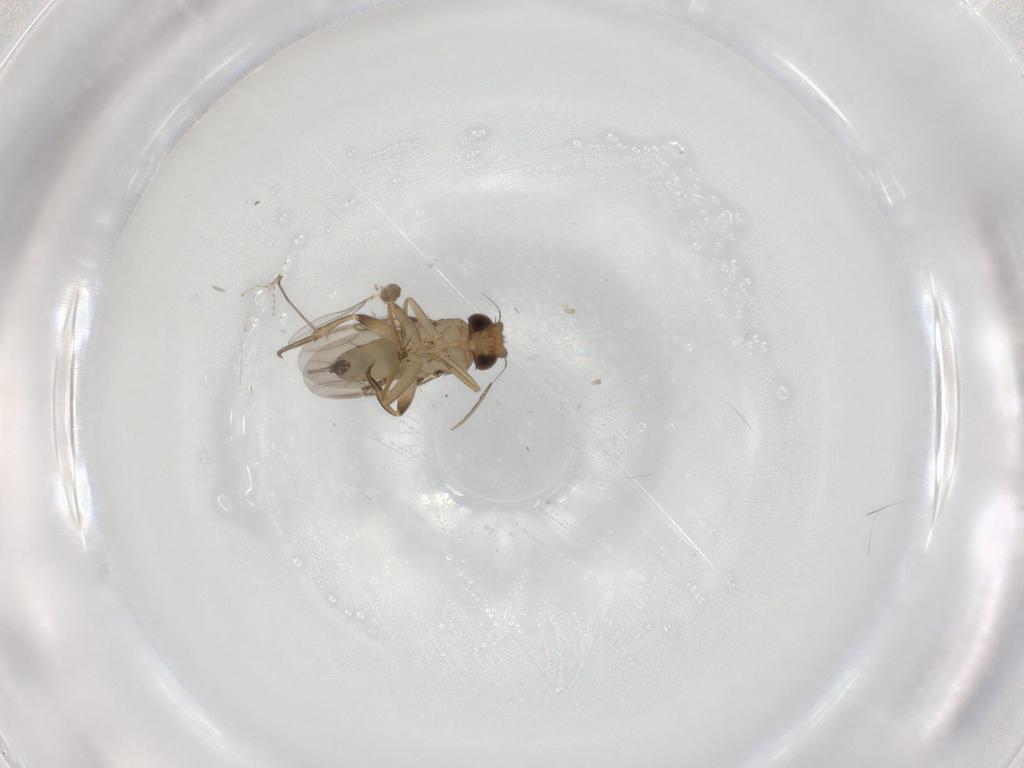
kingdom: Animalia
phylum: Arthropoda
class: Insecta
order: Diptera
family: Phoridae
